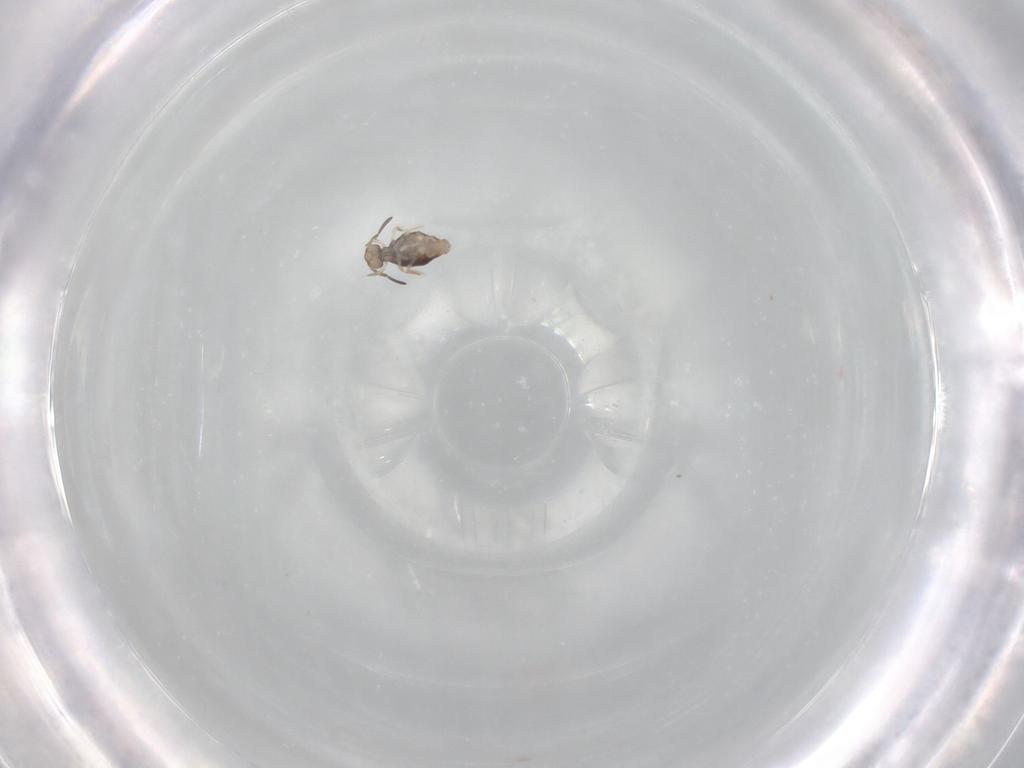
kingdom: Animalia
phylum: Arthropoda
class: Collembola
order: Symphypleona
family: Katiannidae
